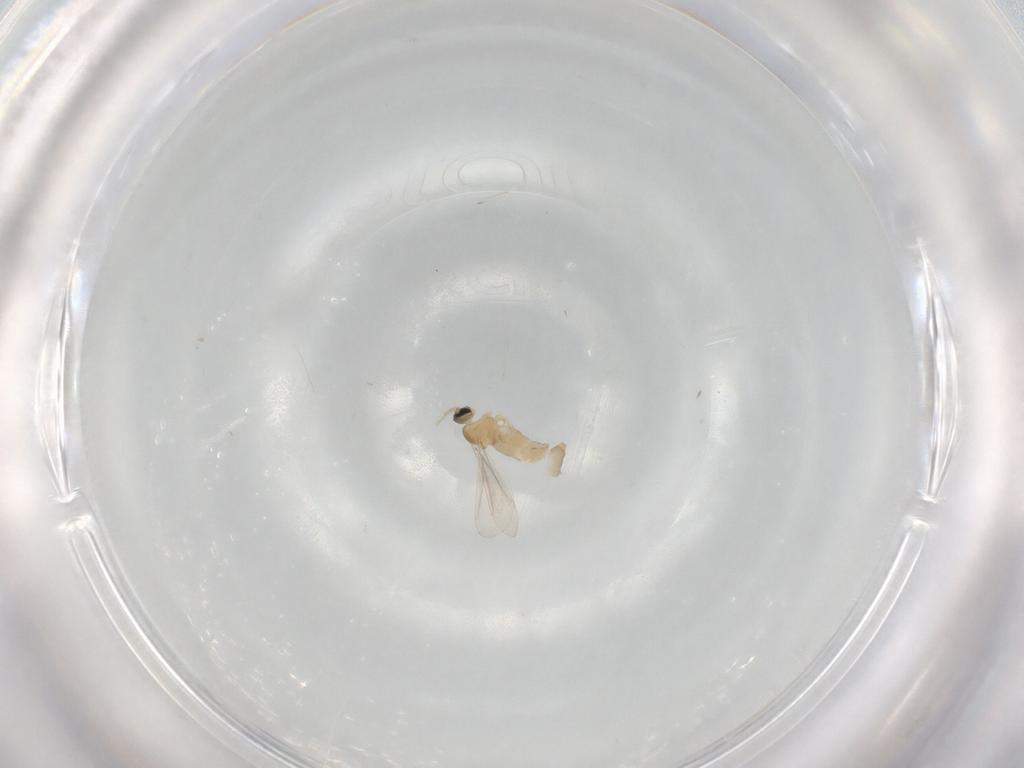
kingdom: Animalia
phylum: Arthropoda
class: Insecta
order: Diptera
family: Cecidomyiidae
